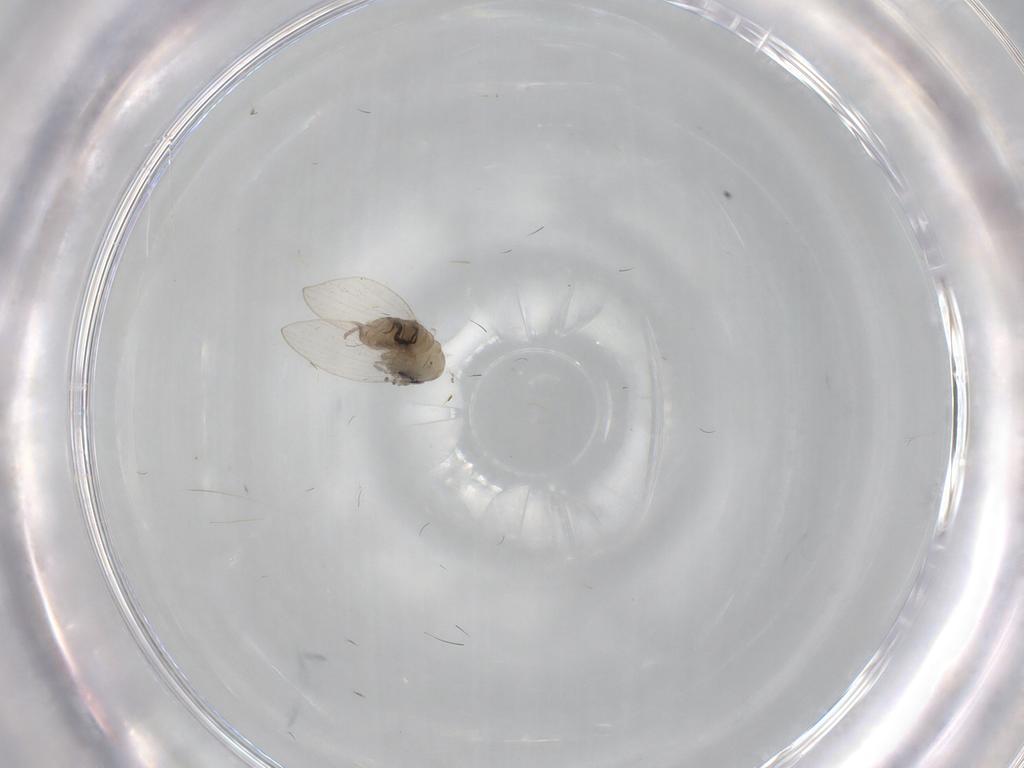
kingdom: Animalia
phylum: Arthropoda
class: Insecta
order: Diptera
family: Psychodidae
